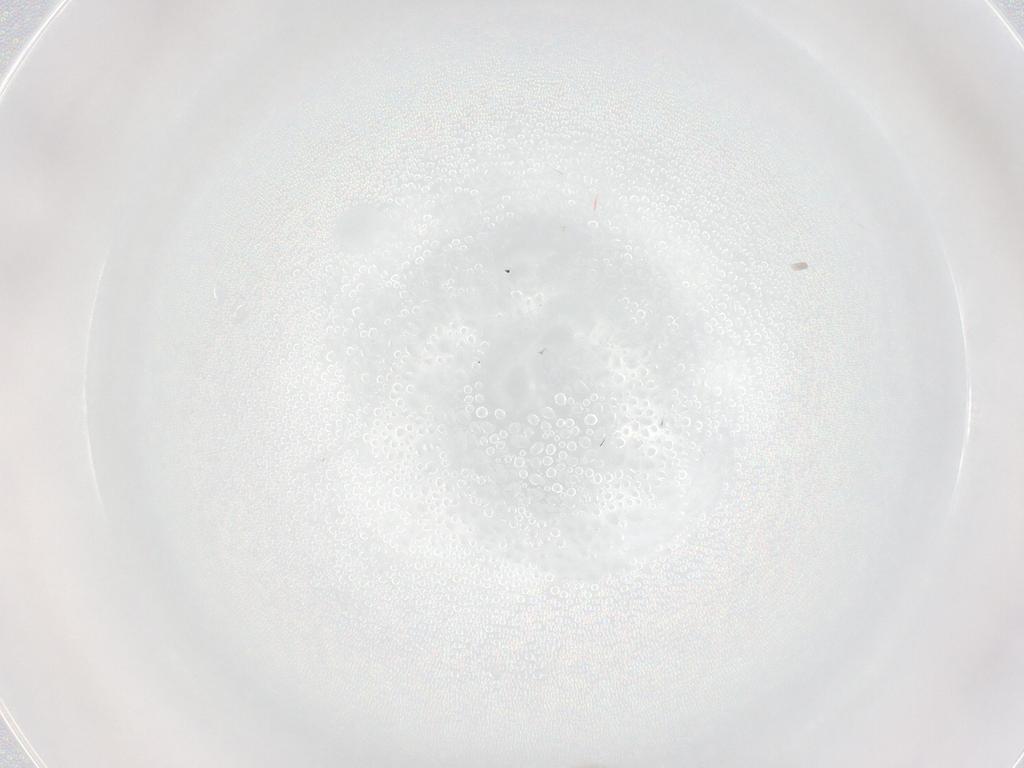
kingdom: Animalia
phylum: Arthropoda
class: Insecta
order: Diptera
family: Ceratopogonidae
